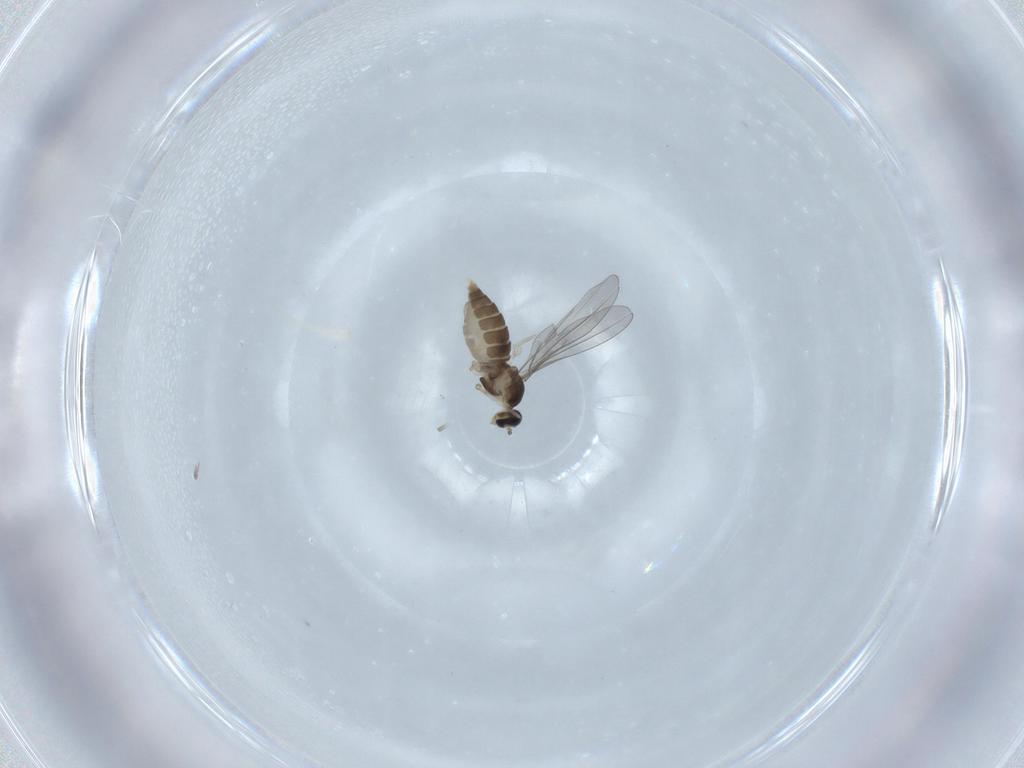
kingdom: Animalia
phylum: Arthropoda
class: Insecta
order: Diptera
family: Cecidomyiidae
